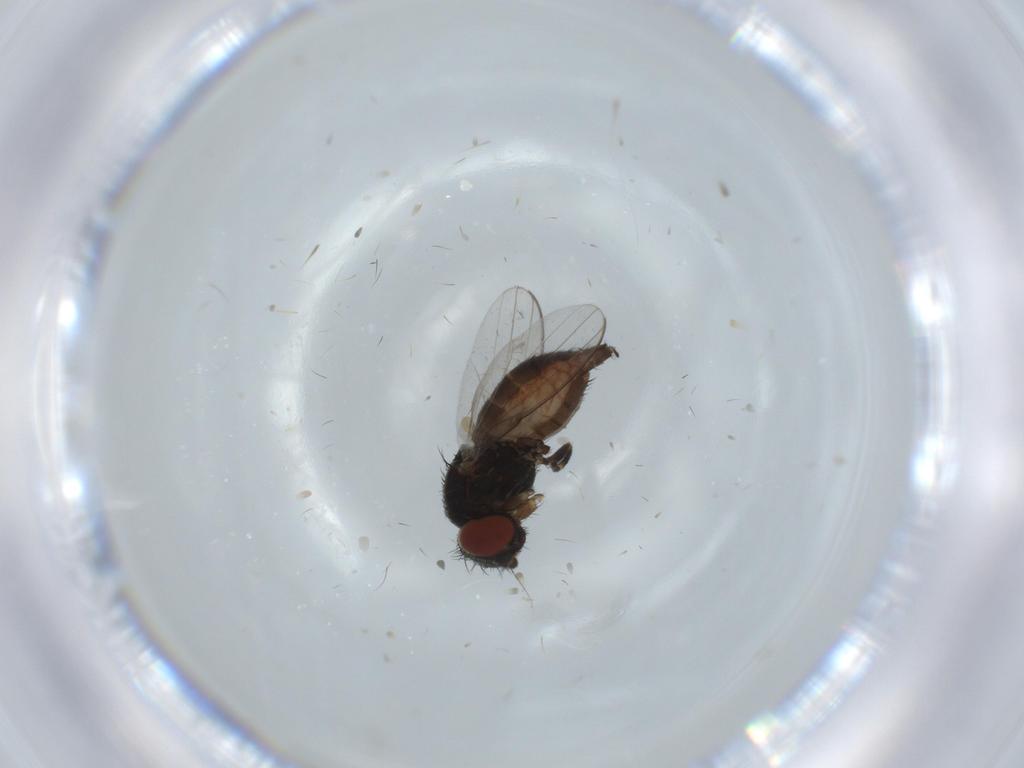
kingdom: Animalia
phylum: Arthropoda
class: Insecta
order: Diptera
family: Milichiidae
